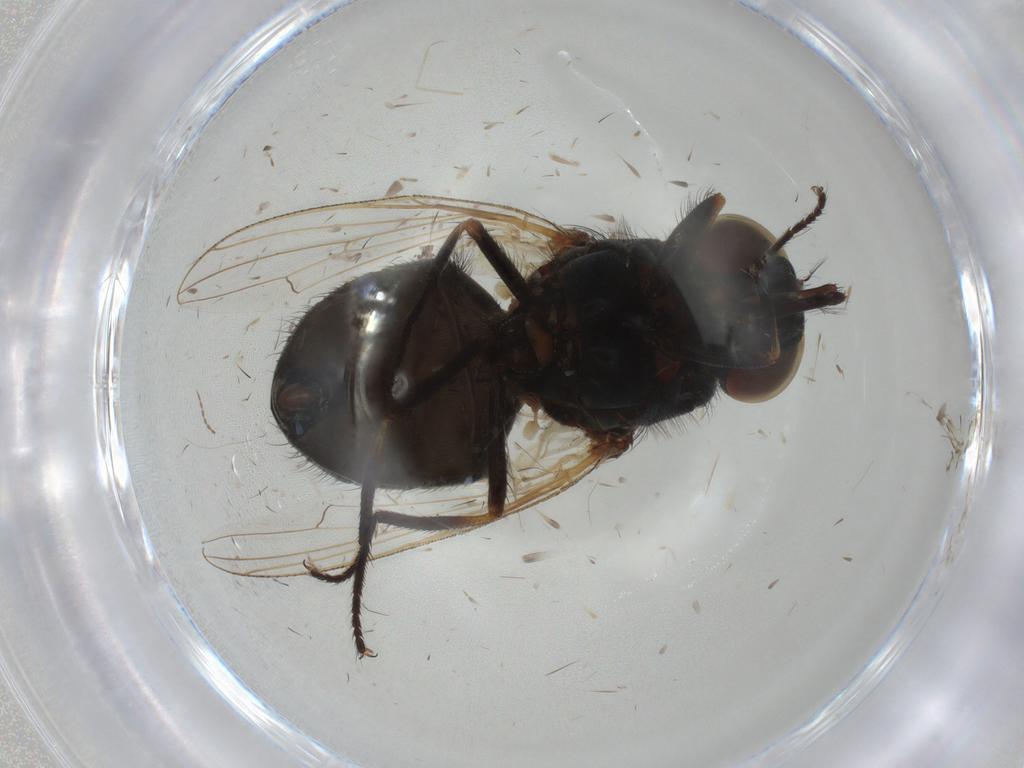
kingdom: Animalia
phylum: Arthropoda
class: Insecta
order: Diptera
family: Muscidae
